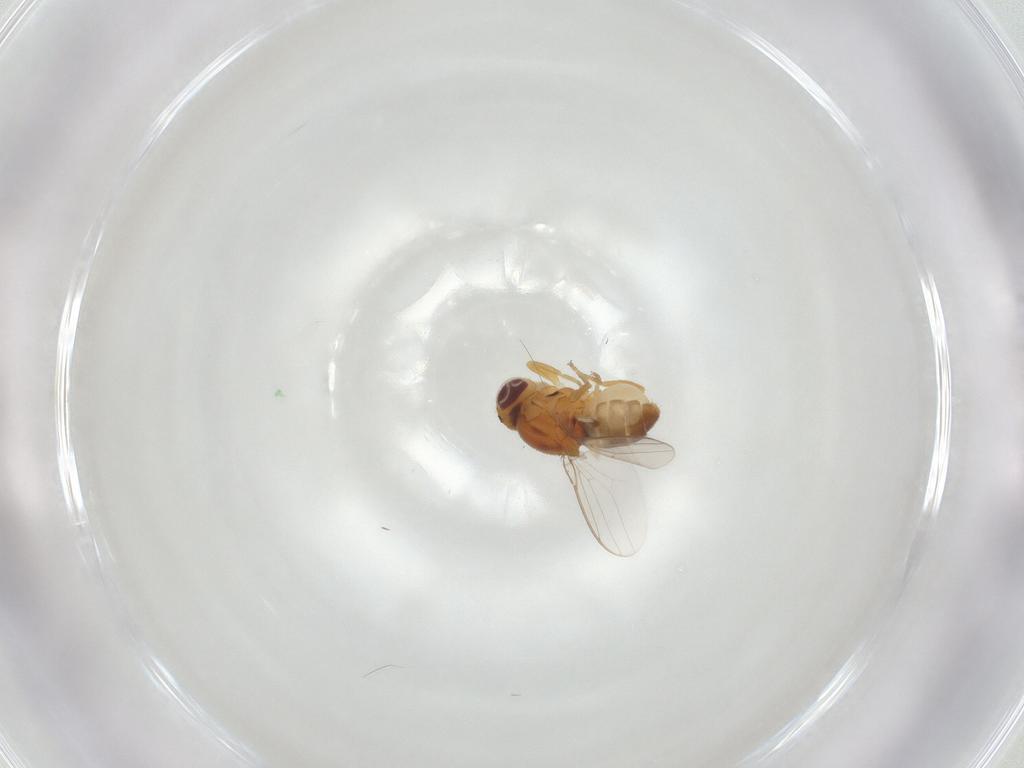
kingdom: Animalia
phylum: Arthropoda
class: Insecta
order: Diptera
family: Chloropidae
